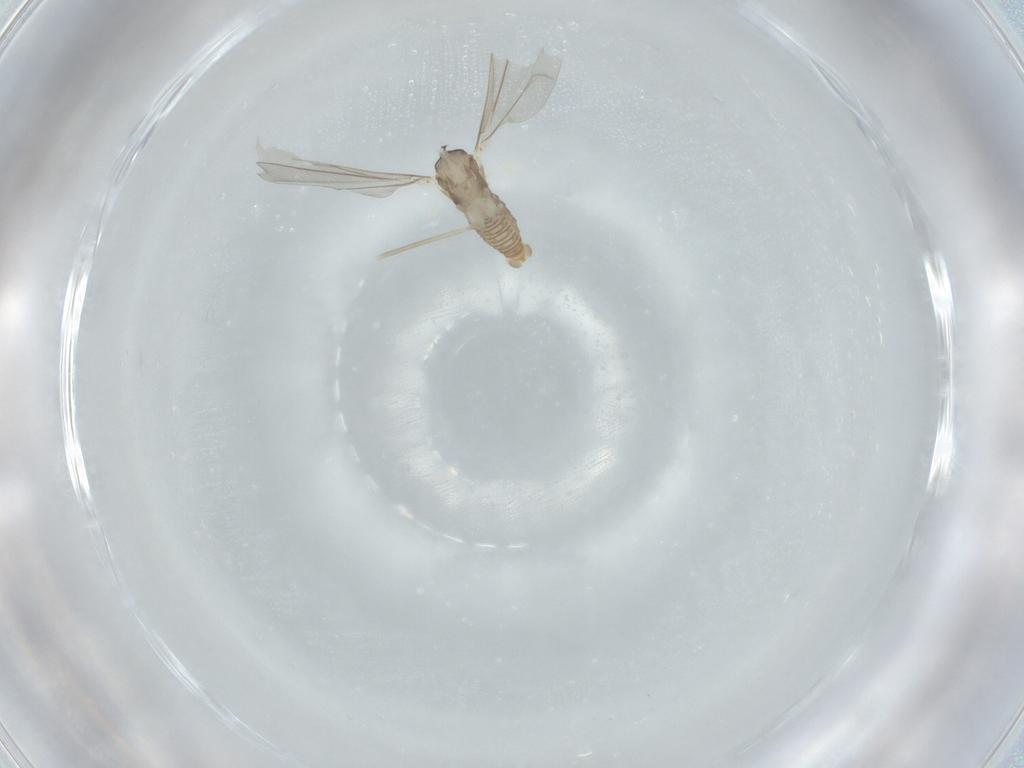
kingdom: Animalia
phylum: Arthropoda
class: Insecta
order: Diptera
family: Cecidomyiidae
